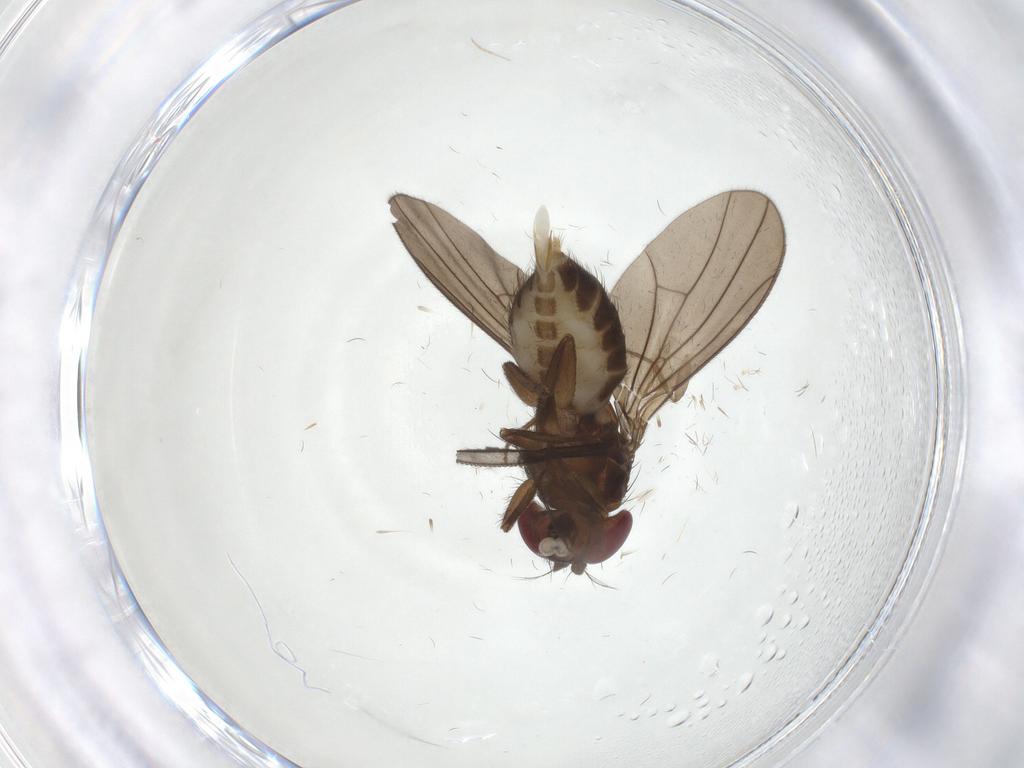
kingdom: Animalia
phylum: Arthropoda
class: Insecta
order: Diptera
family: Drosophilidae
